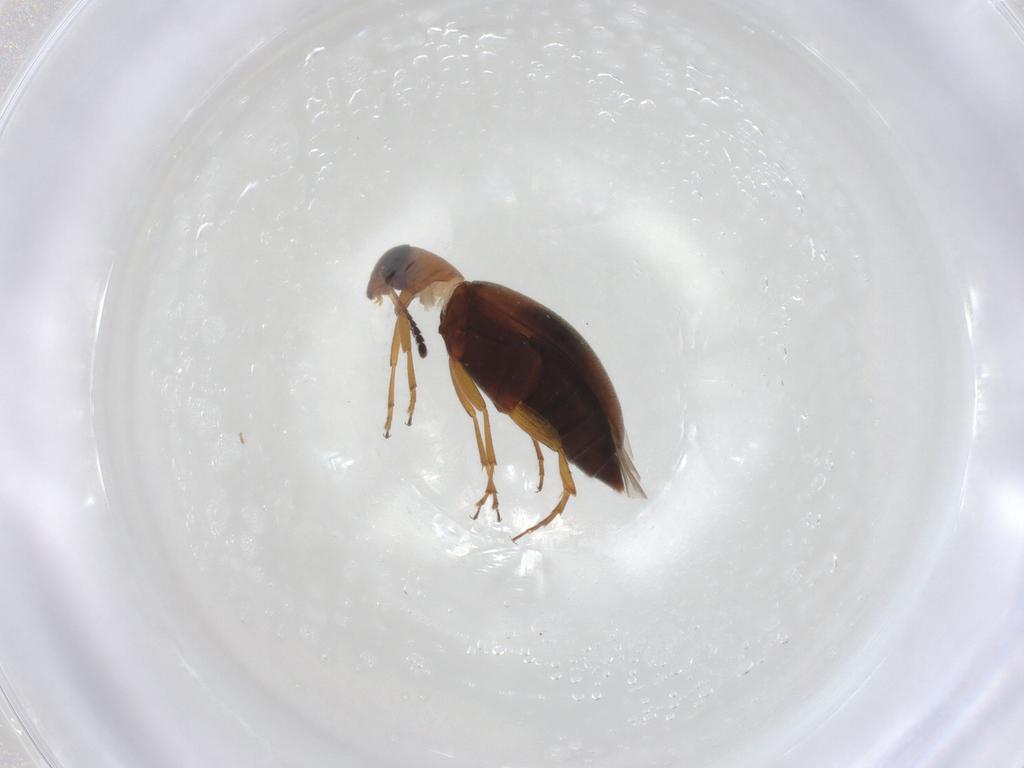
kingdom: Animalia
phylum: Arthropoda
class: Insecta
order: Coleoptera
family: Scraptiidae
